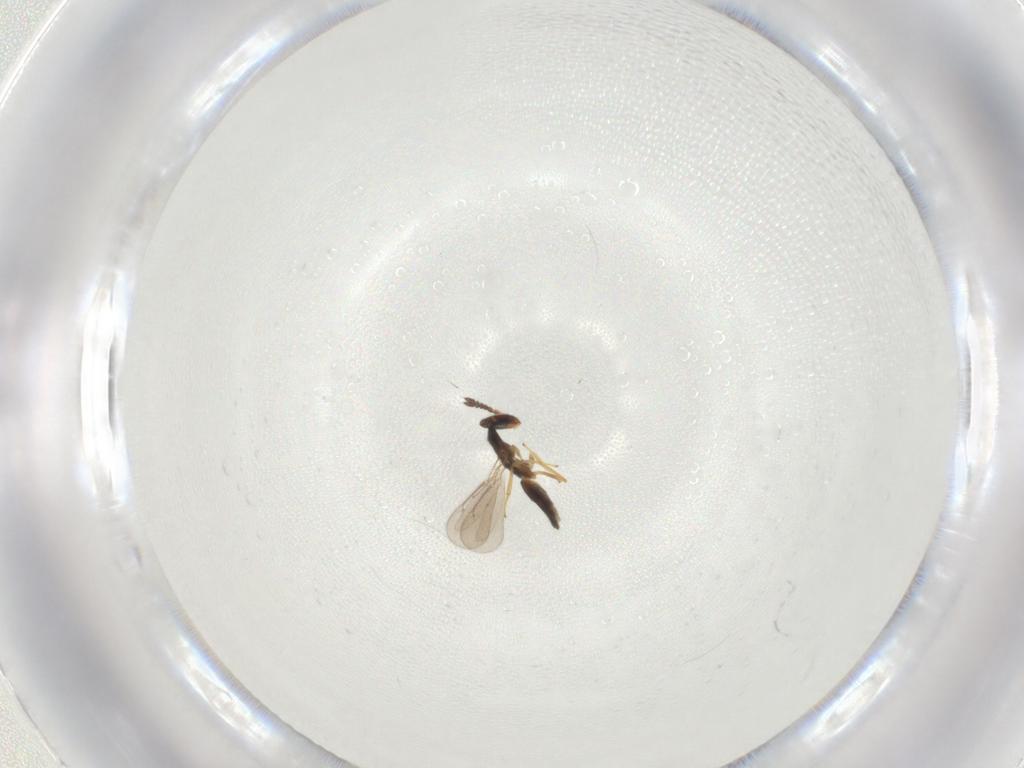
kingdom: Animalia
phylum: Arthropoda
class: Insecta
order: Hymenoptera
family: Eulophidae
